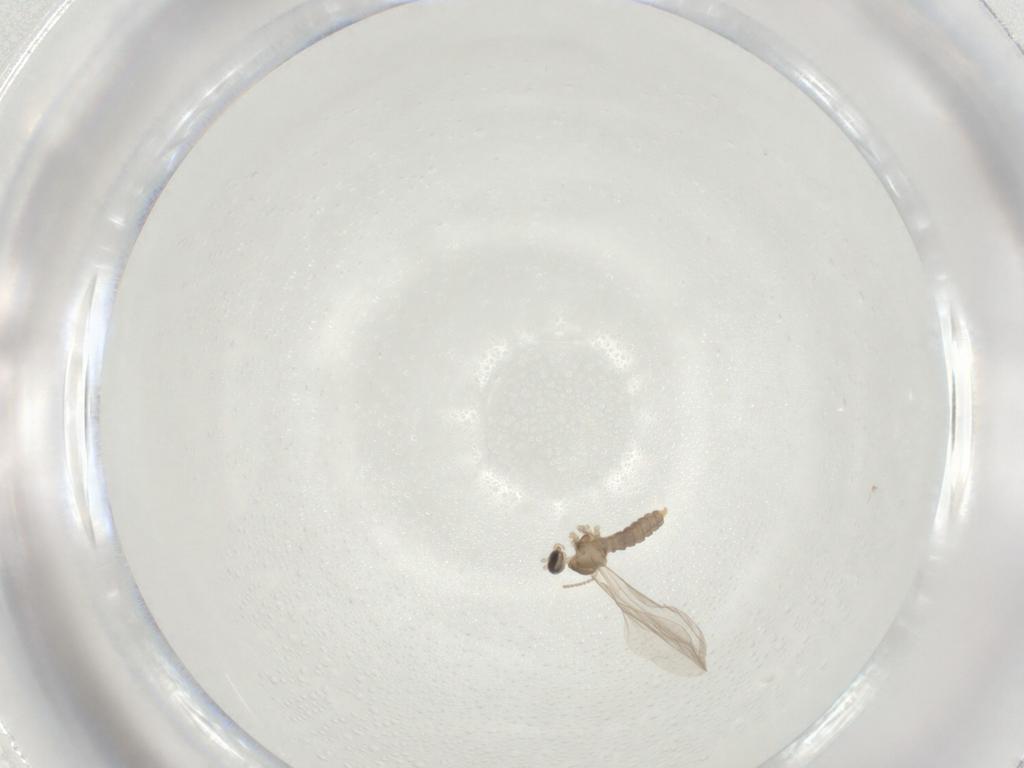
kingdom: Animalia
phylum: Arthropoda
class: Insecta
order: Diptera
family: Cecidomyiidae
